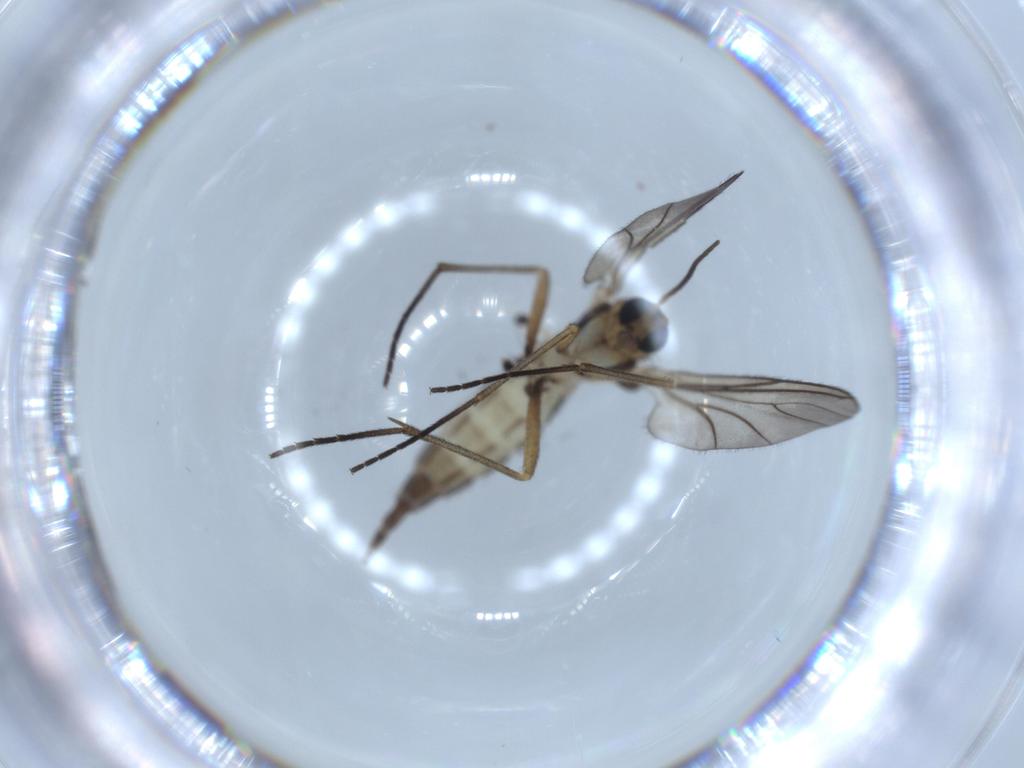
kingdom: Animalia
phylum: Arthropoda
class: Insecta
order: Diptera
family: Sciaridae
